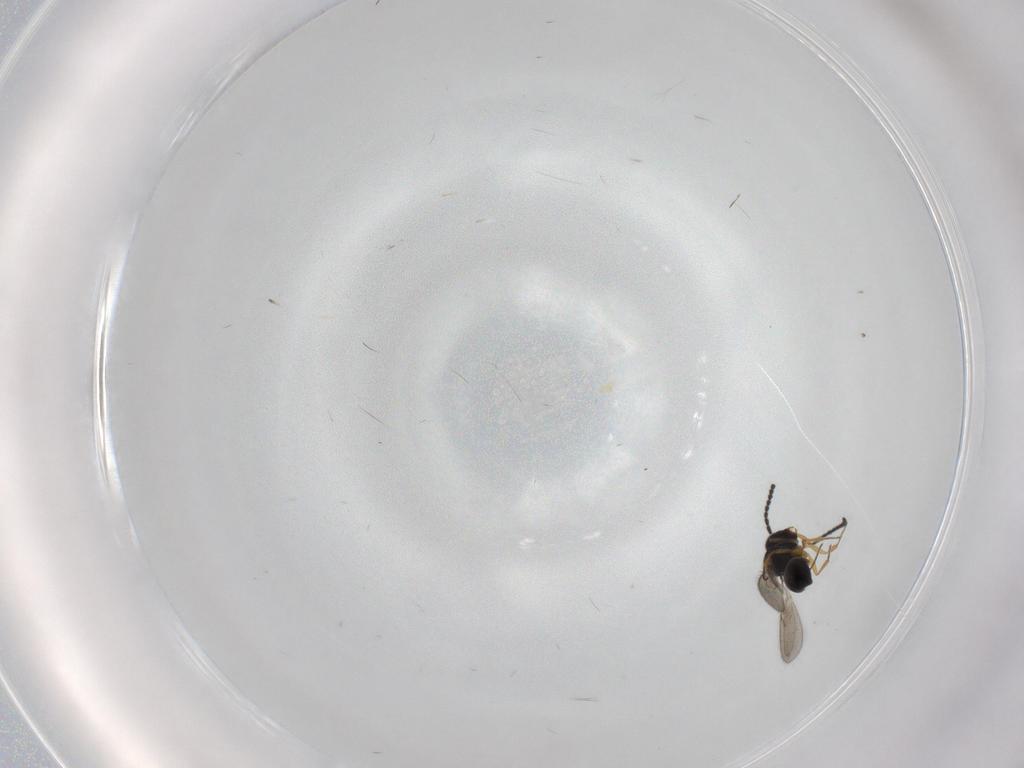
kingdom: Animalia
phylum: Arthropoda
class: Insecta
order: Hymenoptera
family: Scelionidae
